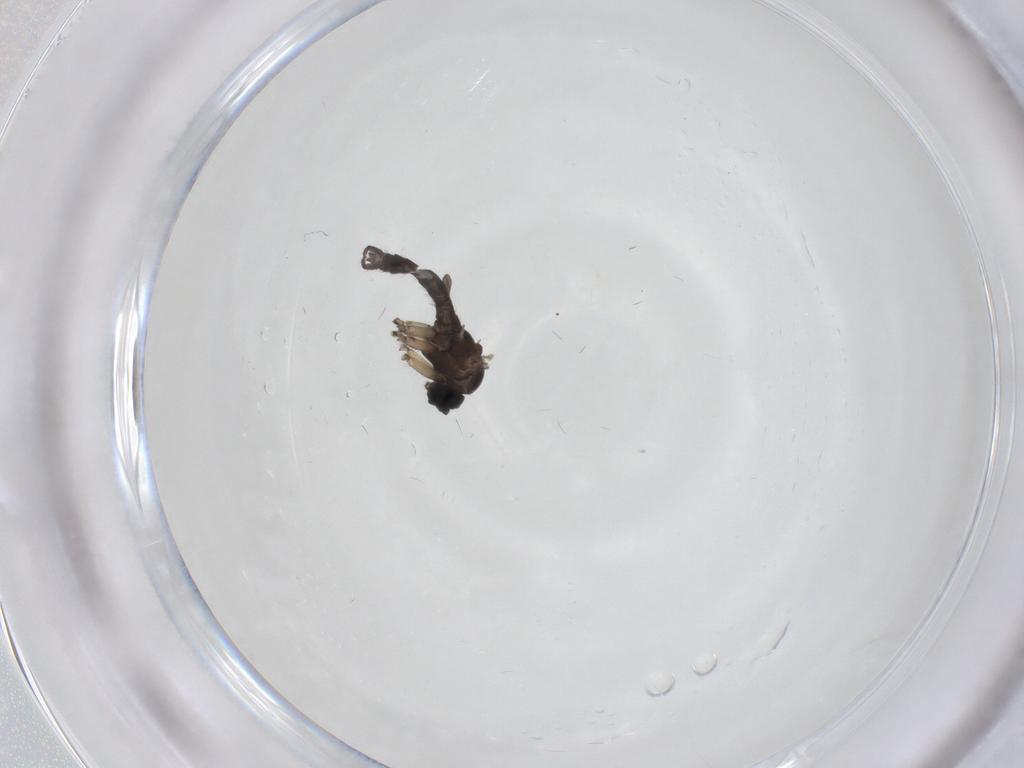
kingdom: Animalia
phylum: Arthropoda
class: Insecta
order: Diptera
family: Sciaridae
